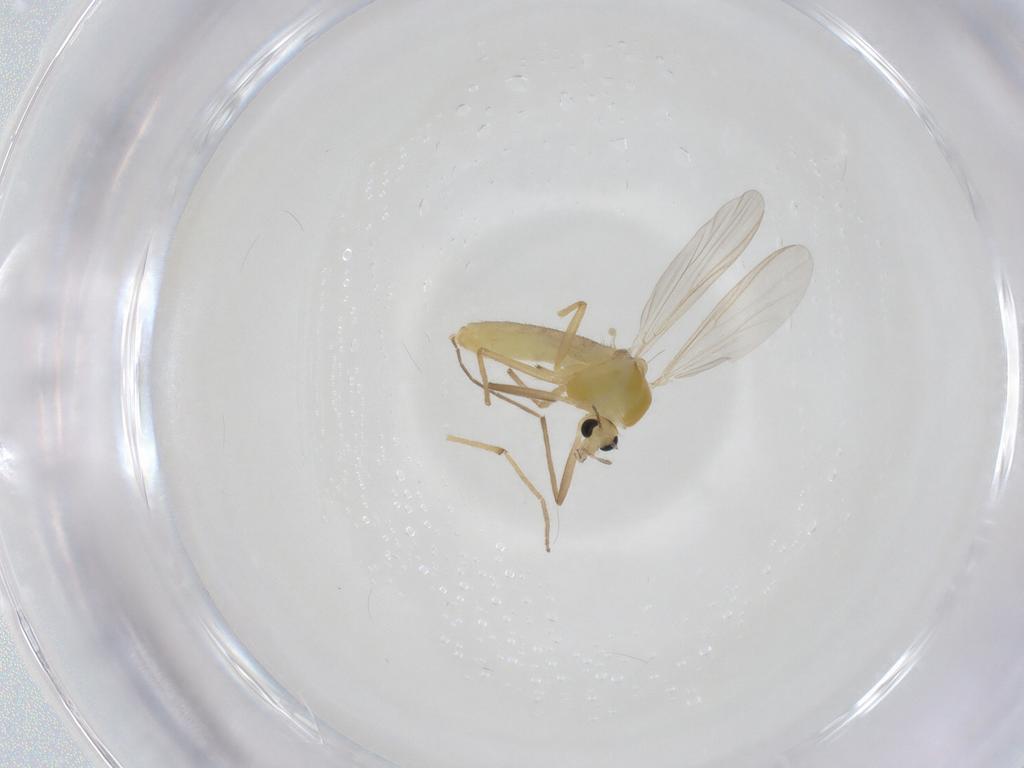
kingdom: Animalia
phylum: Arthropoda
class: Insecta
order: Diptera
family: Chironomidae
